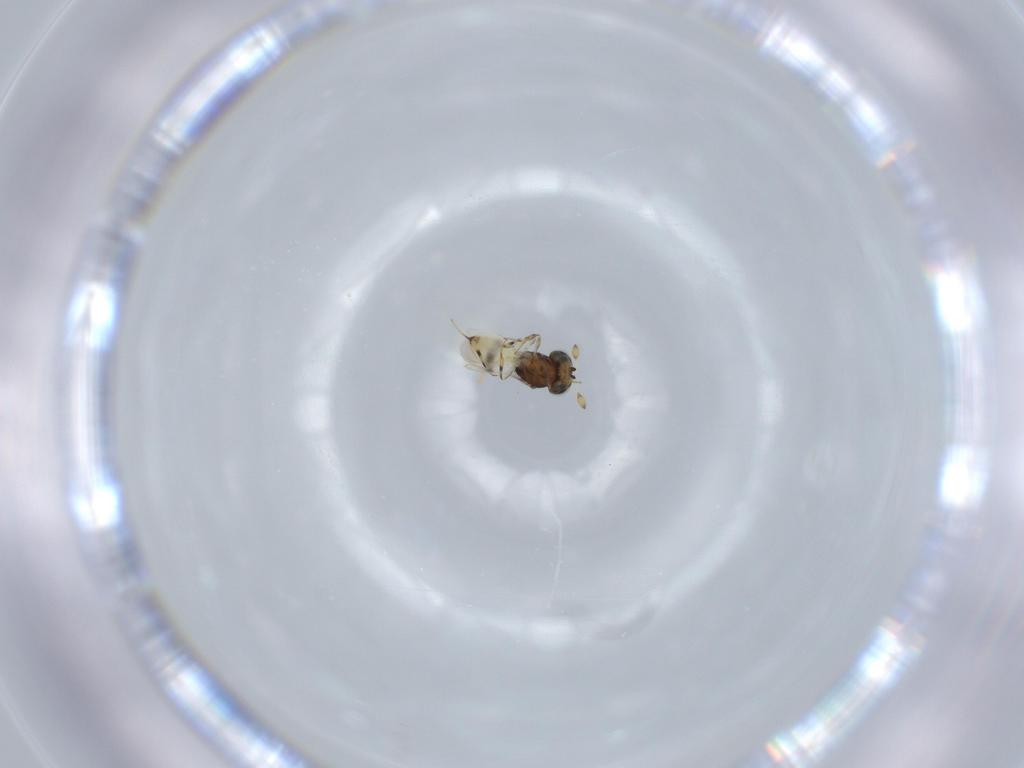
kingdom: Animalia
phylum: Arthropoda
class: Insecta
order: Hymenoptera
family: Scelionidae
